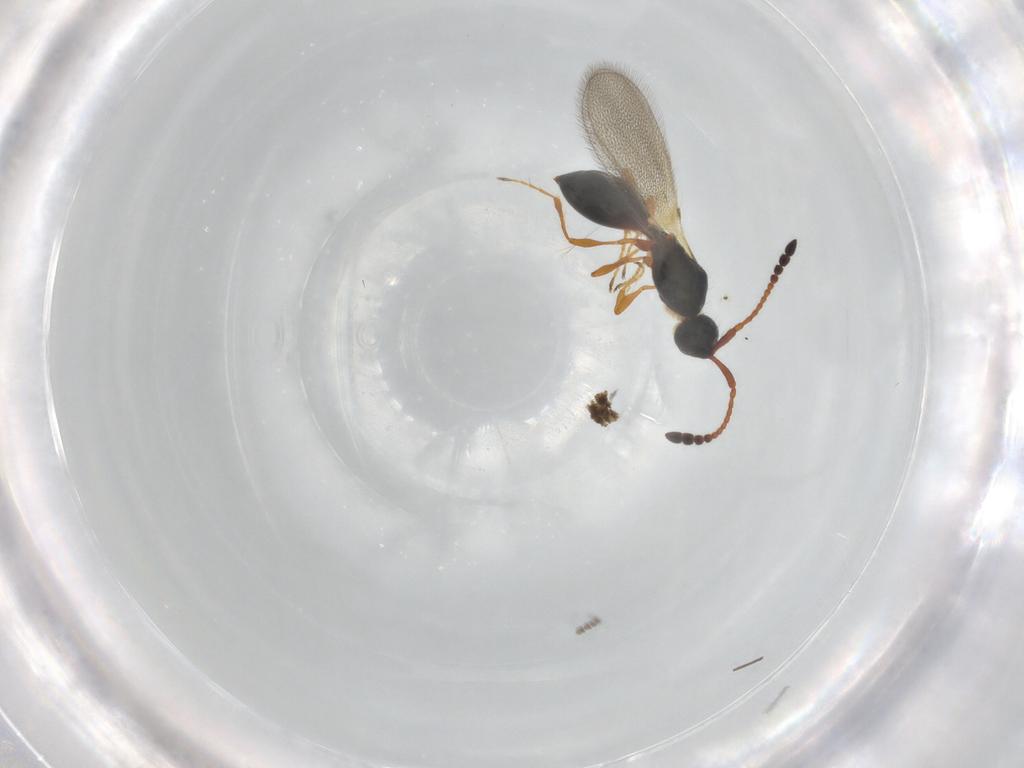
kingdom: Animalia
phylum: Arthropoda
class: Insecta
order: Hymenoptera
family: Diapriidae
